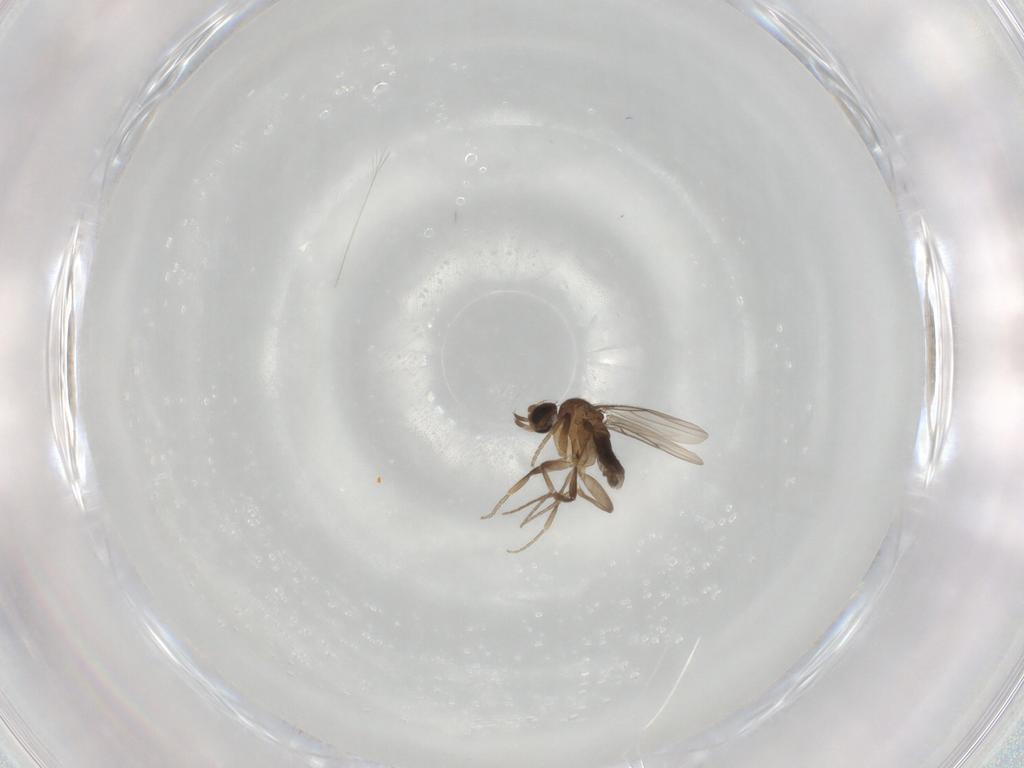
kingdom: Animalia
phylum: Arthropoda
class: Insecta
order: Diptera
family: Phoridae
